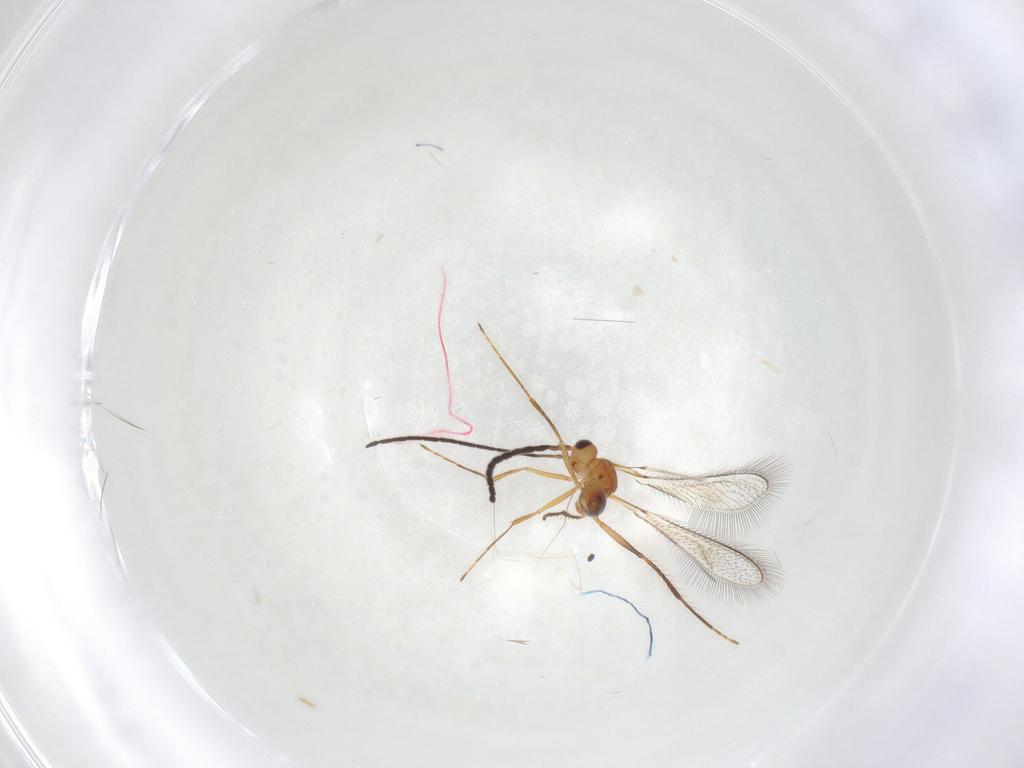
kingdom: Animalia
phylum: Arthropoda
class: Insecta
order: Hymenoptera
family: Mymaridae
